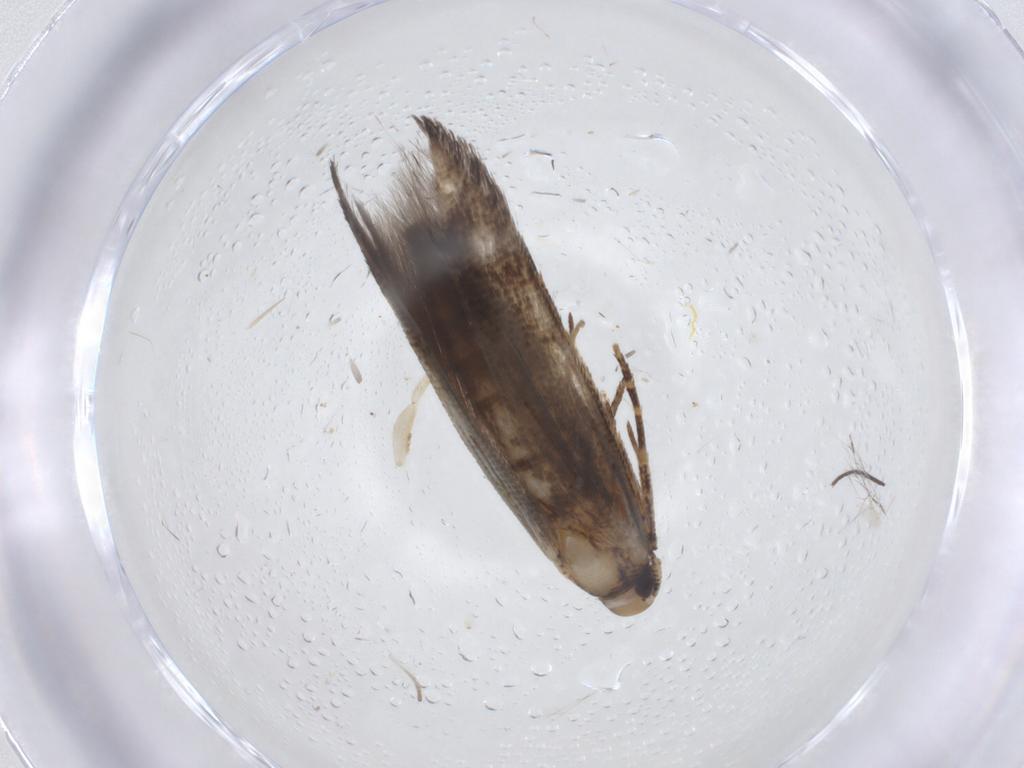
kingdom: Animalia
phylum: Arthropoda
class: Insecta
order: Lepidoptera
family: Cosmopterigidae
